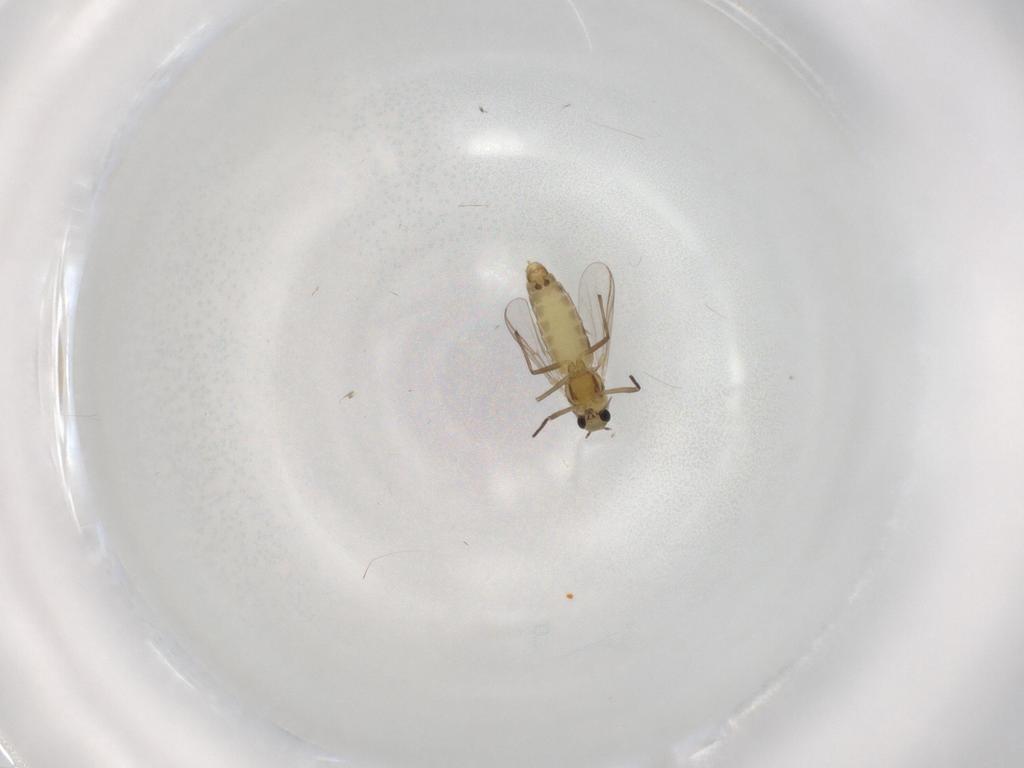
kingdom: Animalia
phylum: Arthropoda
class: Insecta
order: Diptera
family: Chironomidae
